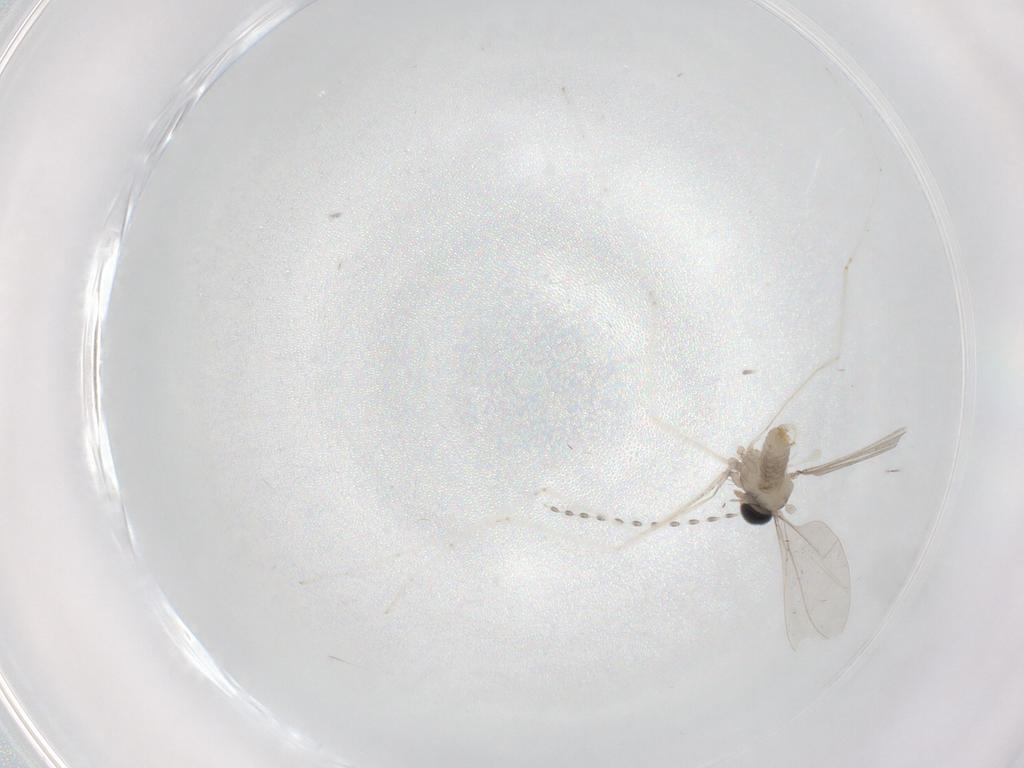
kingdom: Animalia
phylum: Arthropoda
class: Insecta
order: Diptera
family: Cecidomyiidae
